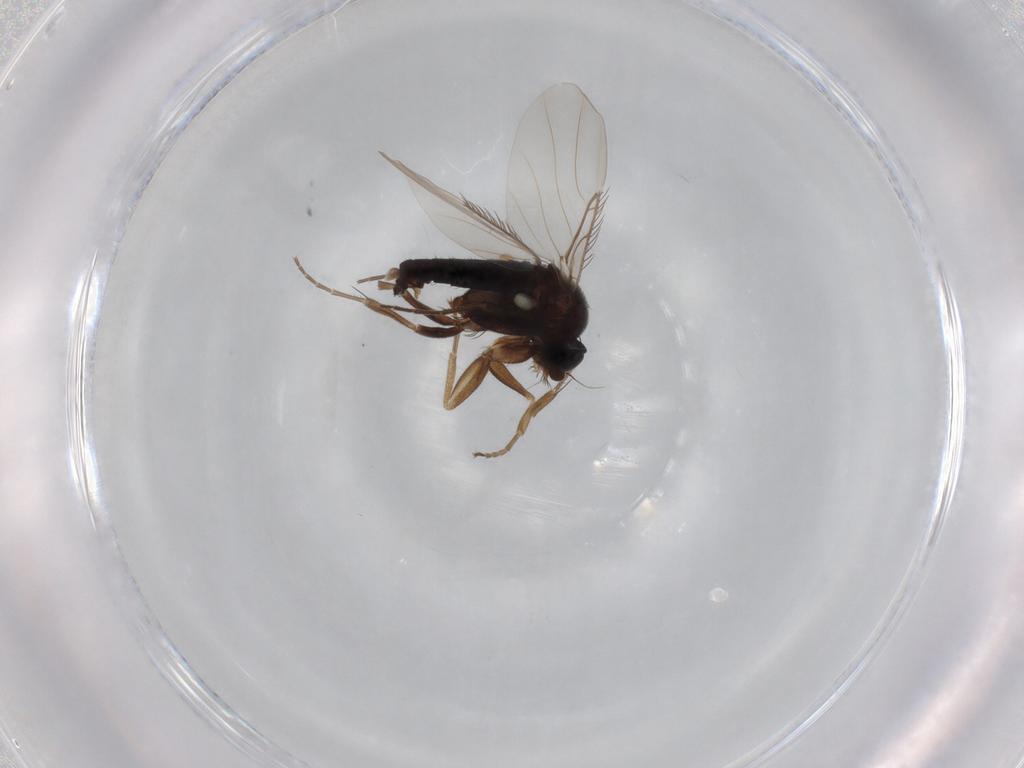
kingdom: Animalia
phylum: Arthropoda
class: Insecta
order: Diptera
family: Phoridae
